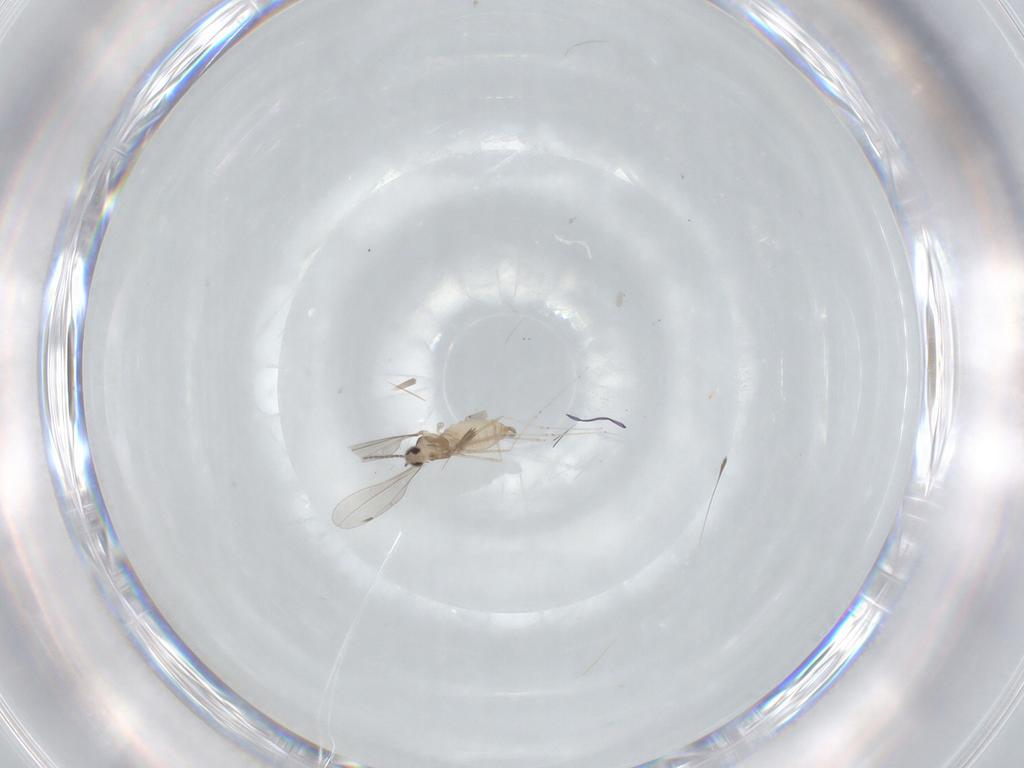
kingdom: Animalia
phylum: Arthropoda
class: Insecta
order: Diptera
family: Cecidomyiidae
